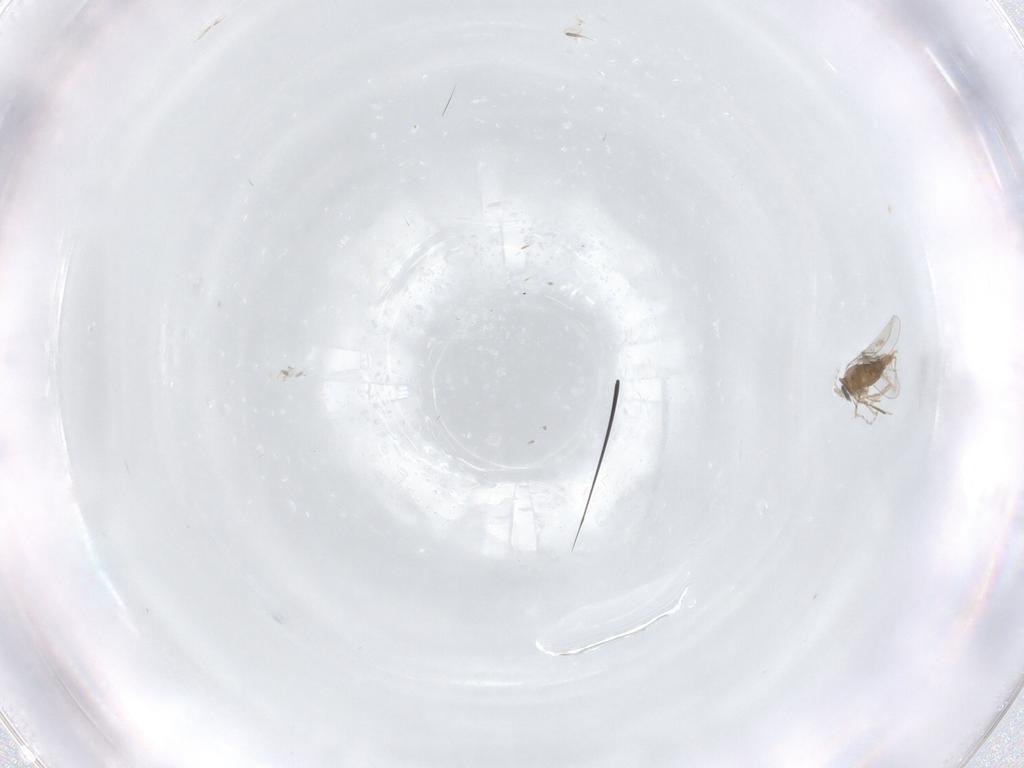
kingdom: Animalia
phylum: Arthropoda
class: Insecta
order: Diptera
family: Cecidomyiidae
